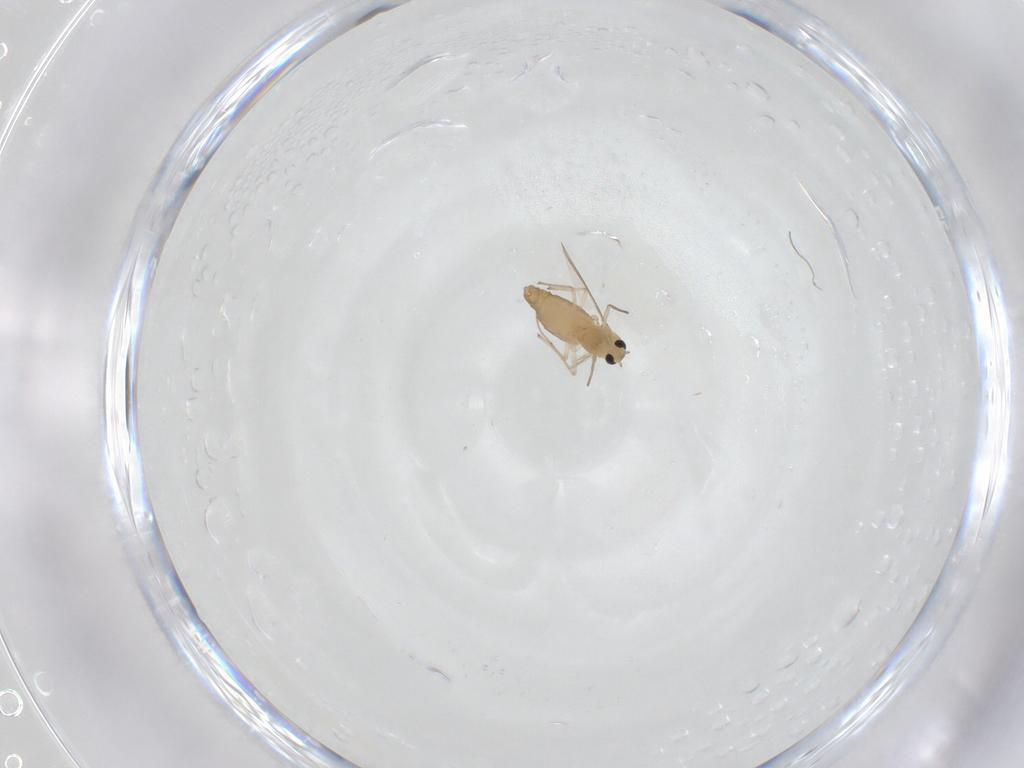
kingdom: Animalia
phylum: Arthropoda
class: Insecta
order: Diptera
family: Chironomidae
